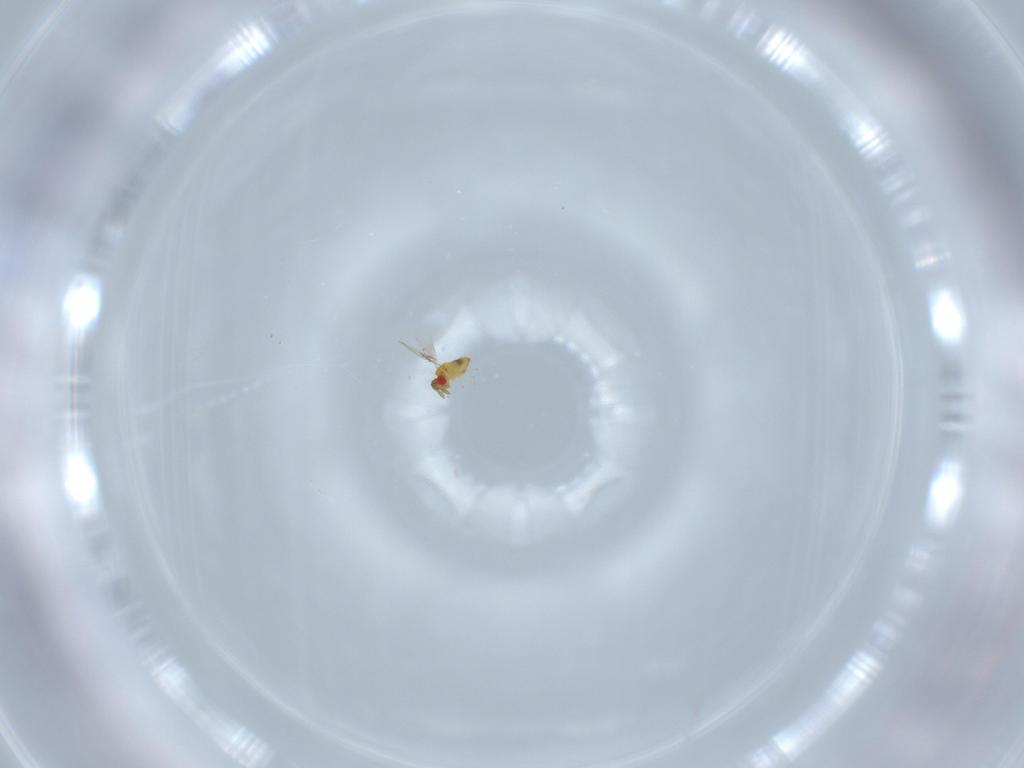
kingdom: Animalia
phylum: Arthropoda
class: Insecta
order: Hymenoptera
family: Trichogrammatidae
